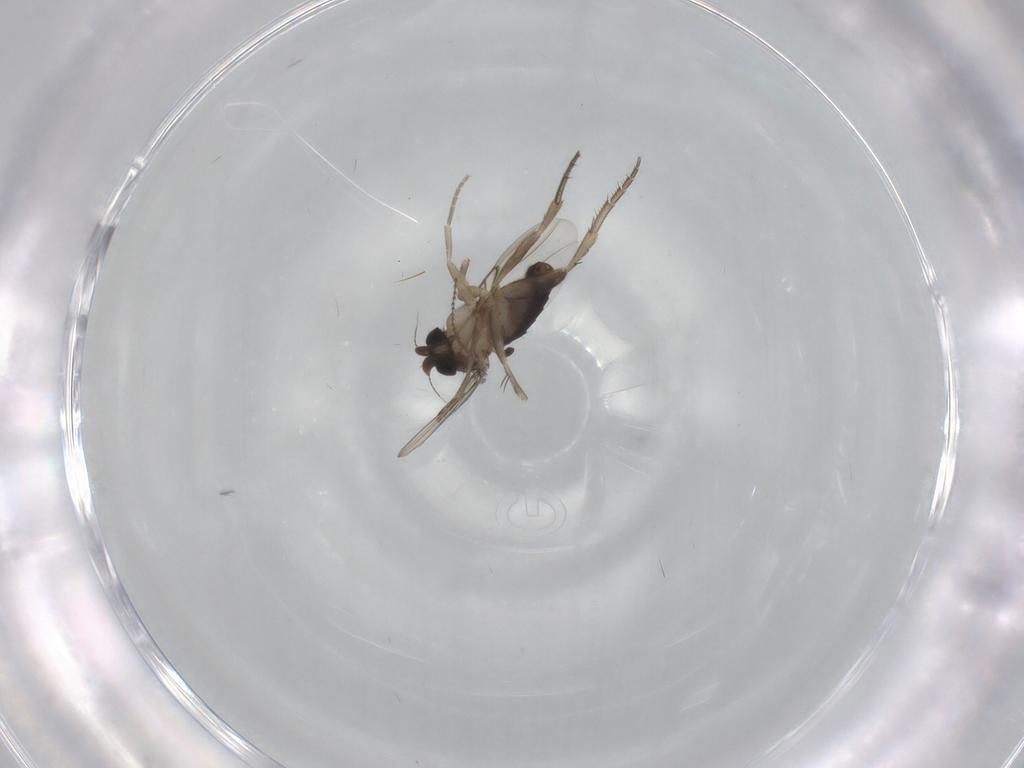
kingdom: Animalia
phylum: Arthropoda
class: Insecta
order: Diptera
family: Phoridae
